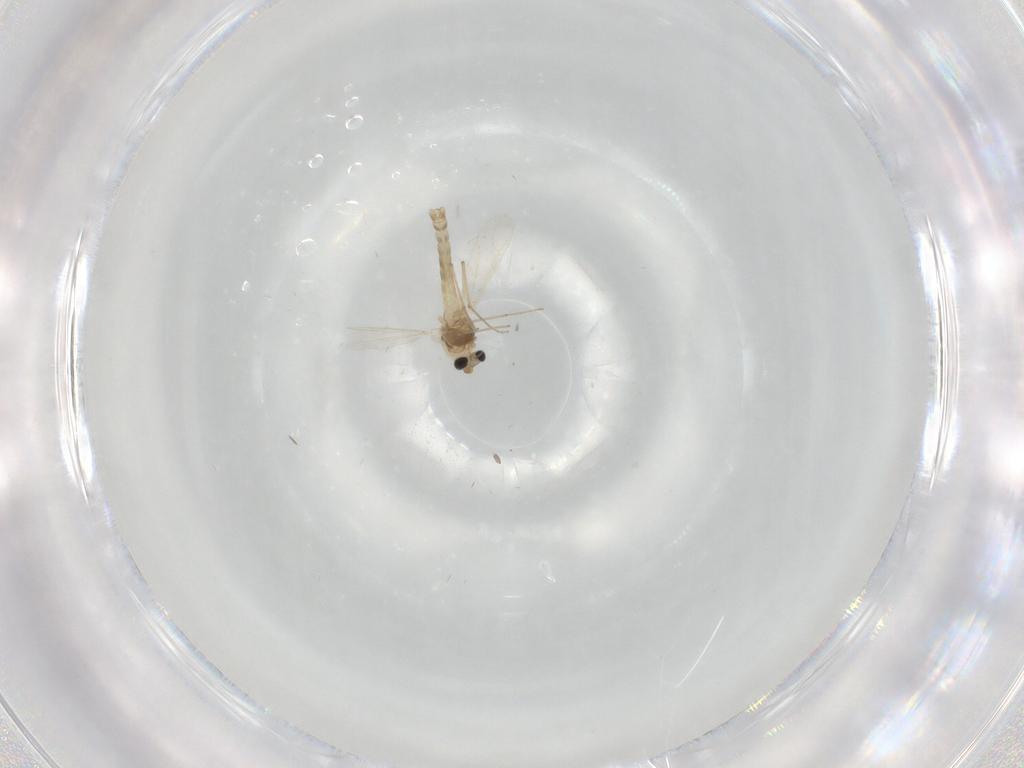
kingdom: Animalia
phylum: Arthropoda
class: Insecta
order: Diptera
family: Chironomidae
